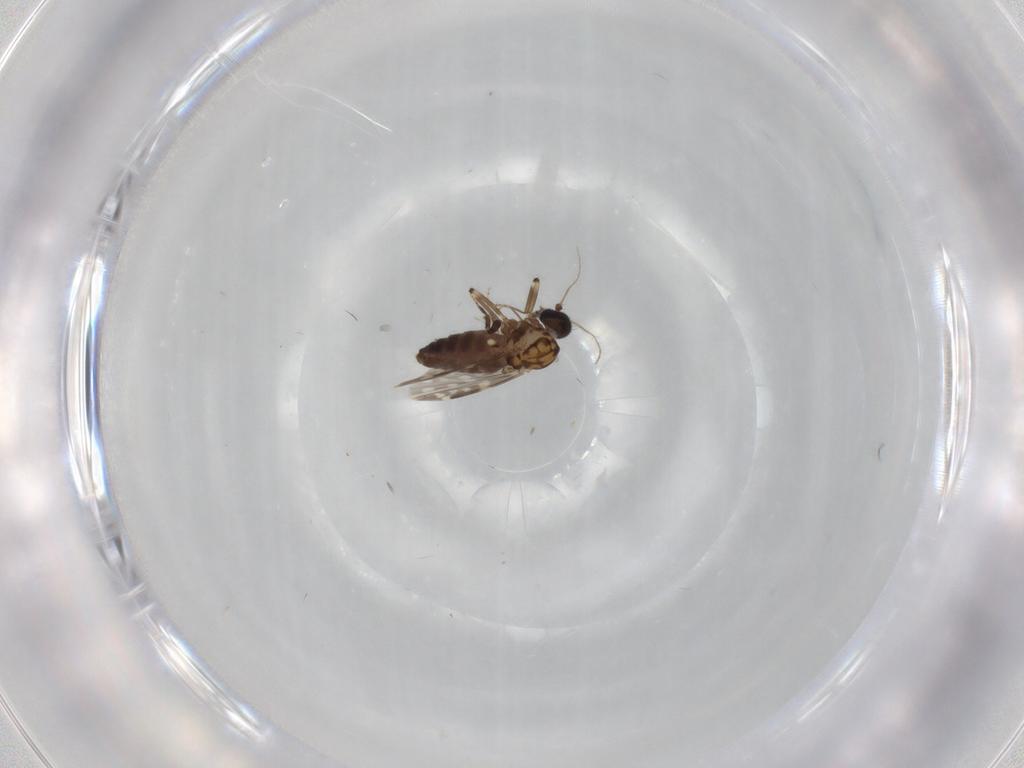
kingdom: Animalia
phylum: Arthropoda
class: Insecta
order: Diptera
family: Ceratopogonidae
